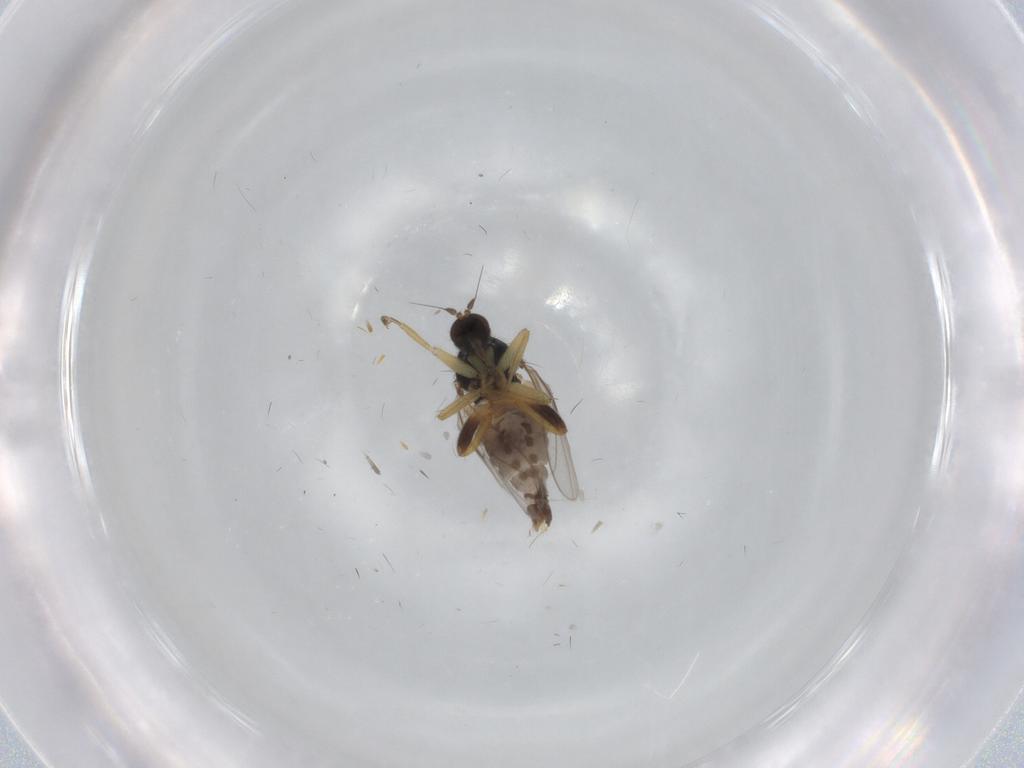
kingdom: Animalia
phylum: Arthropoda
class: Insecta
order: Diptera
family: Hybotidae
